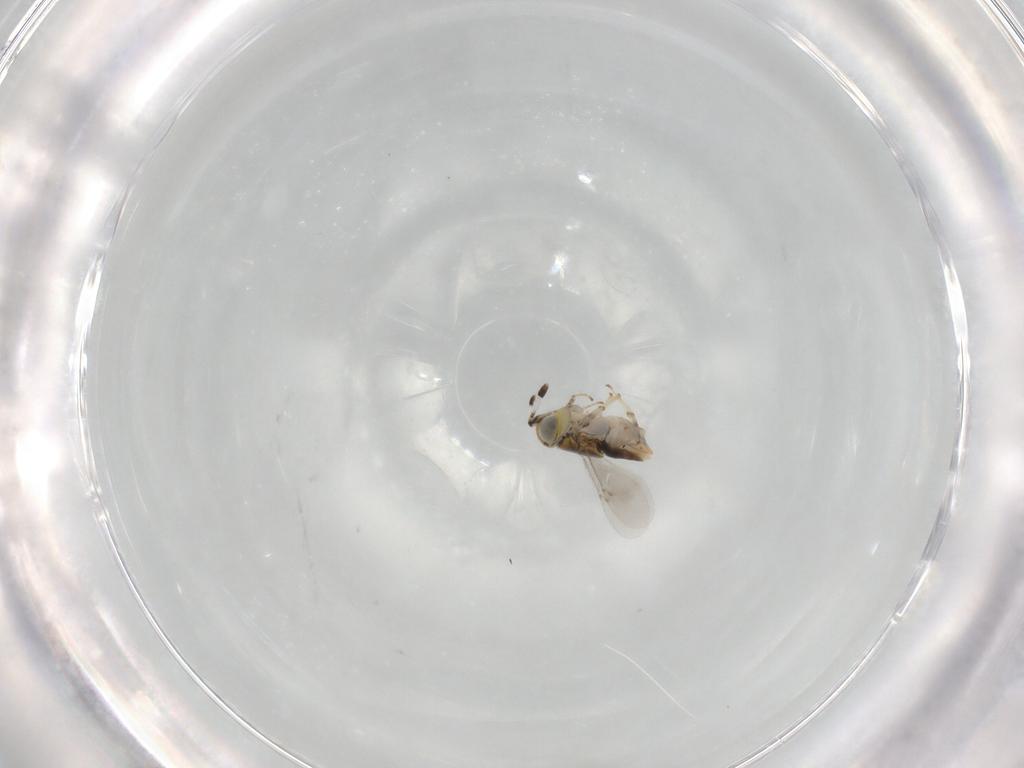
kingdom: Animalia
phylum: Arthropoda
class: Insecta
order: Hymenoptera
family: Encyrtidae
